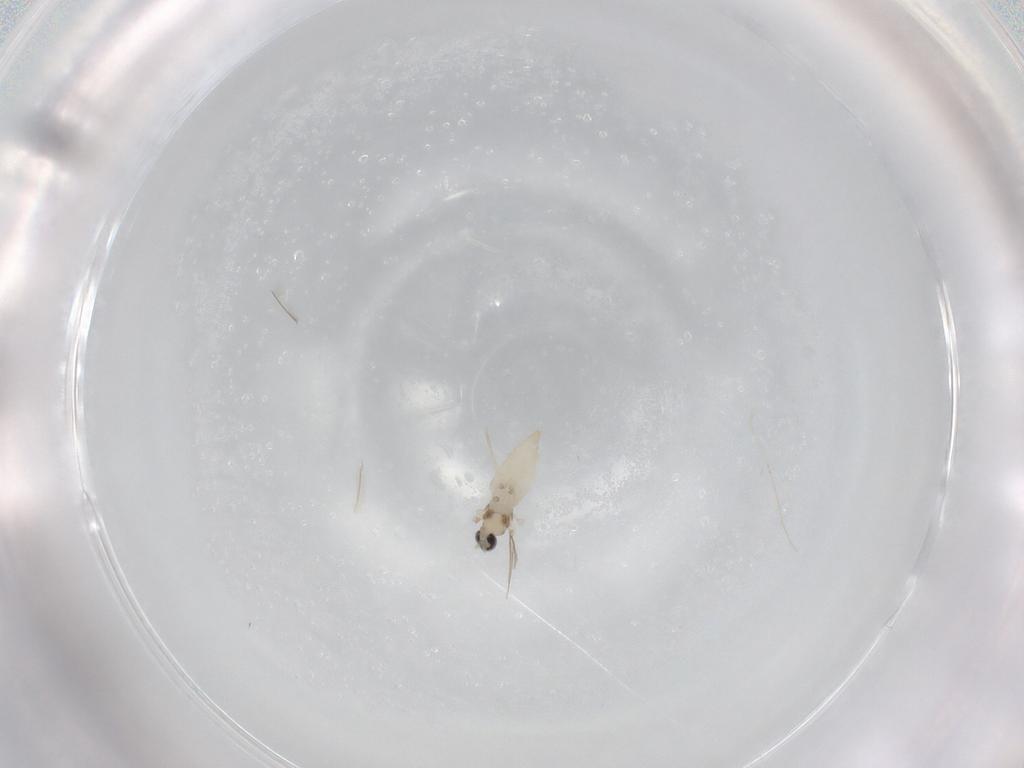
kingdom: Animalia
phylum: Arthropoda
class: Insecta
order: Diptera
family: Cecidomyiidae
